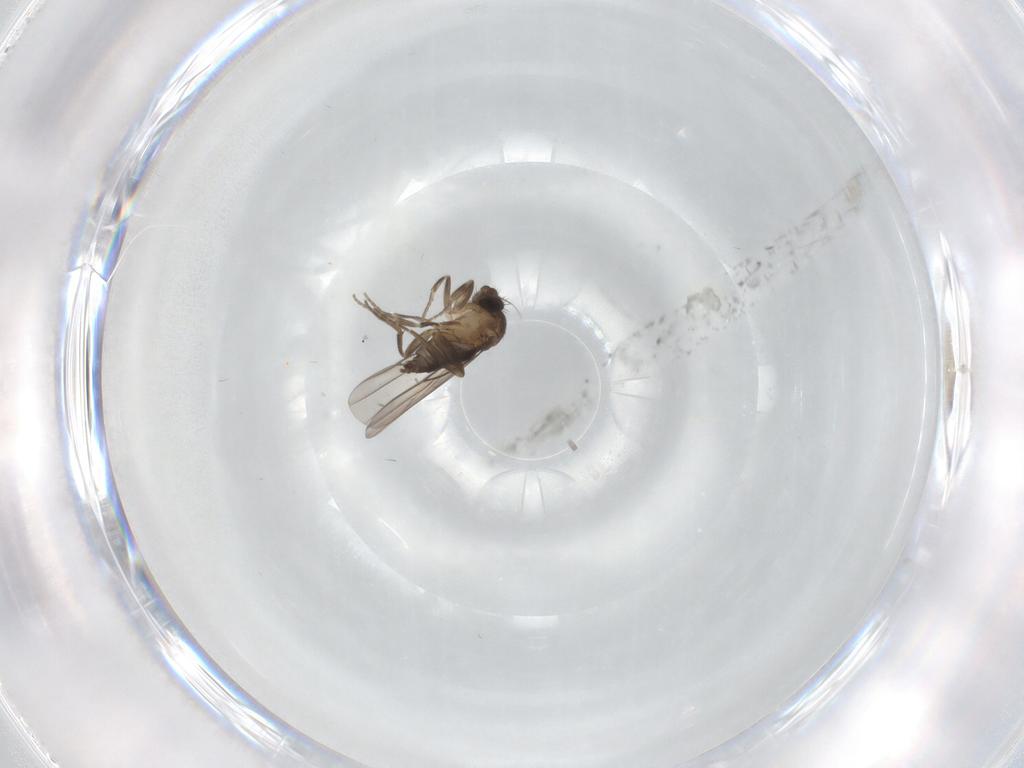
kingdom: Animalia
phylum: Arthropoda
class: Insecta
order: Diptera
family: Phoridae
